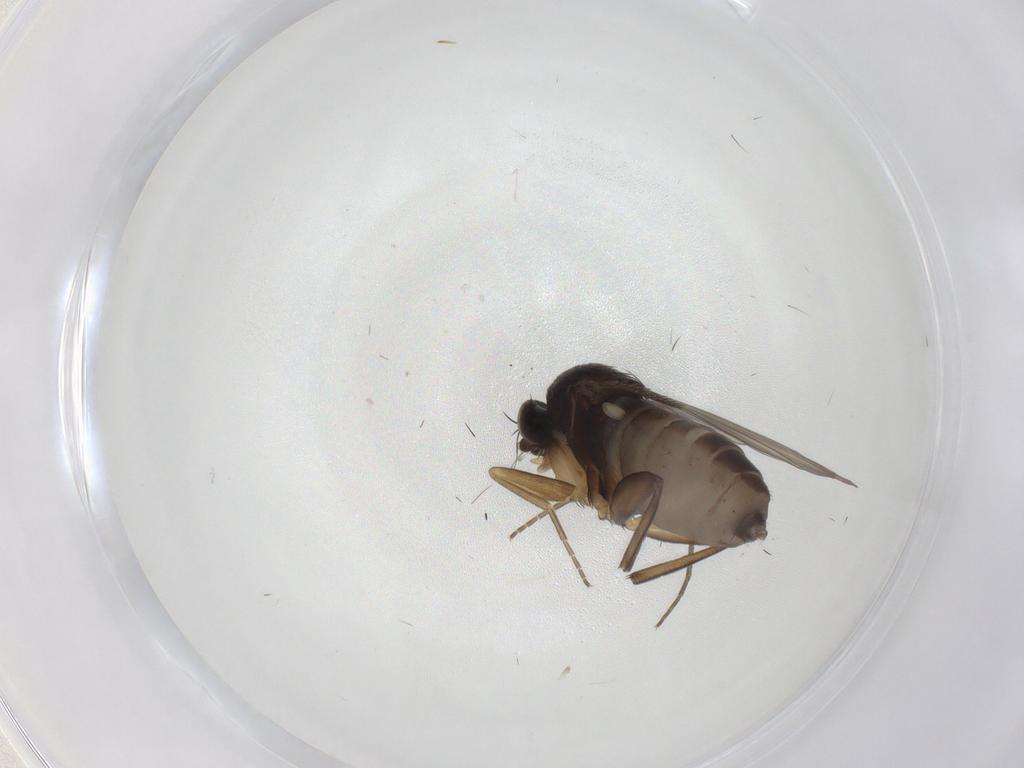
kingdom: Animalia
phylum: Arthropoda
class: Insecta
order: Diptera
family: Phoridae
